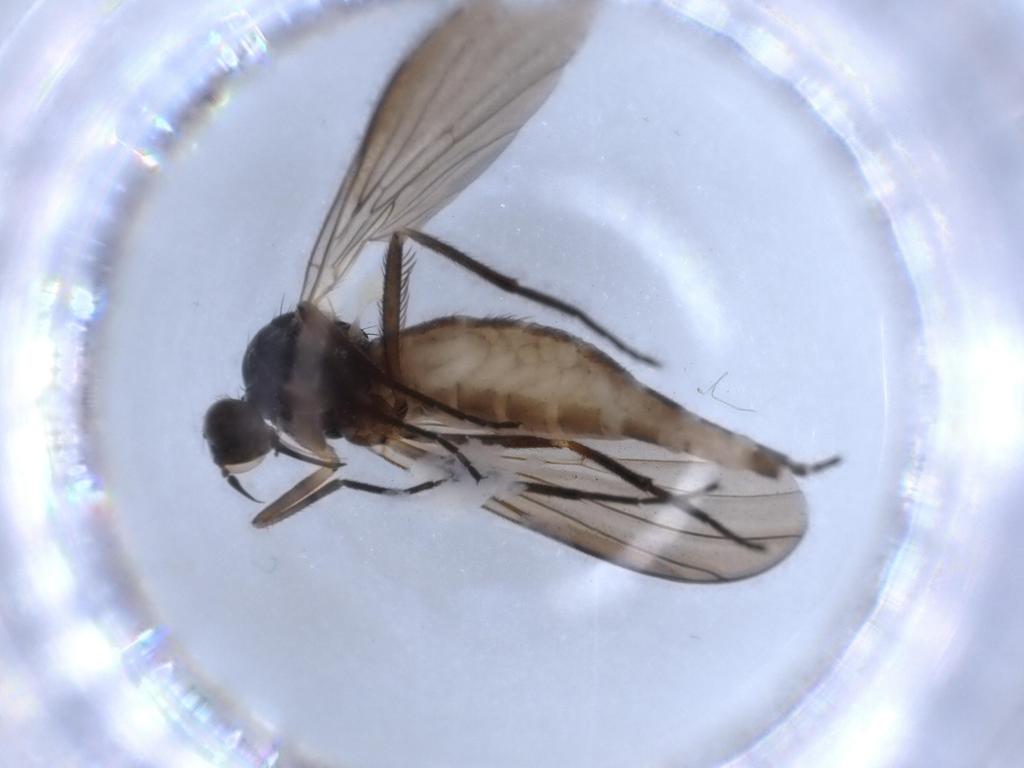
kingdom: Animalia
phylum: Arthropoda
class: Insecta
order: Diptera
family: Empididae
